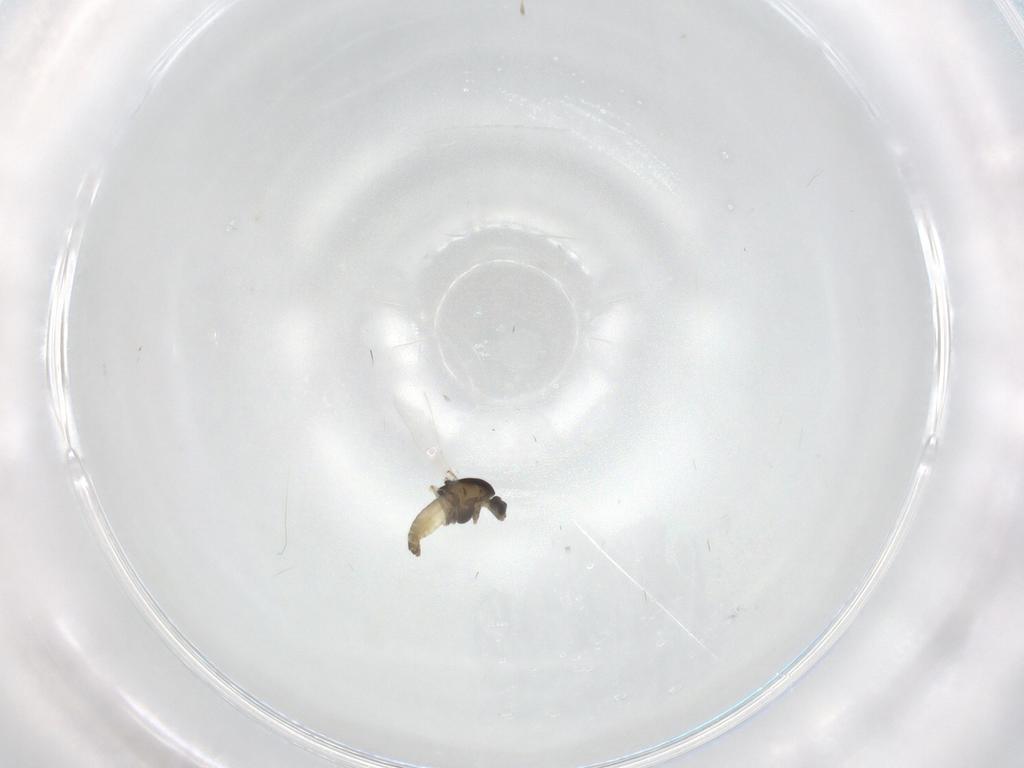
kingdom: Animalia
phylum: Arthropoda
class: Insecta
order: Diptera
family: Chironomidae
